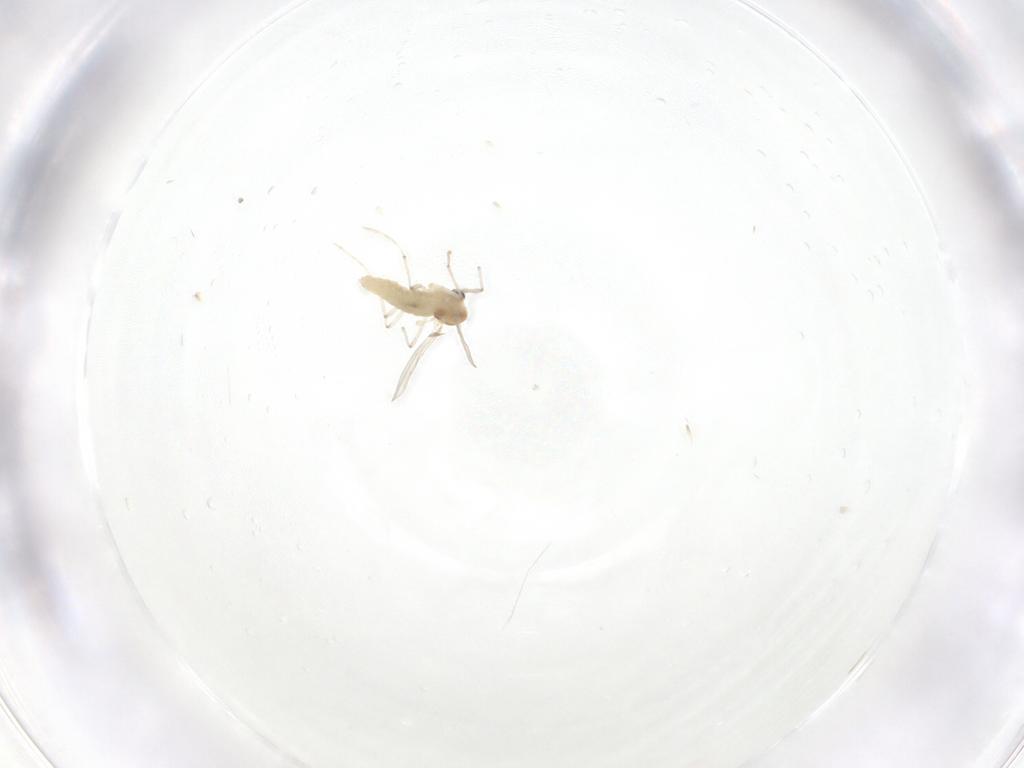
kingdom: Animalia
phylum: Arthropoda
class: Insecta
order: Diptera
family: Chironomidae
